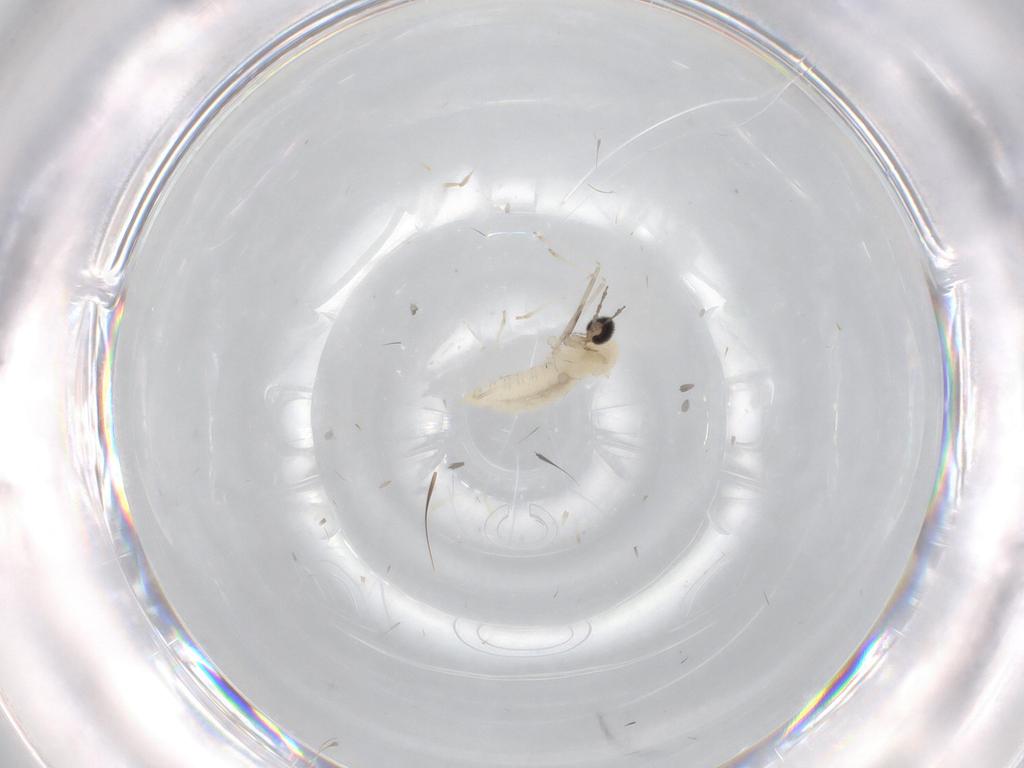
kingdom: Animalia
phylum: Arthropoda
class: Insecta
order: Diptera
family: Cecidomyiidae
